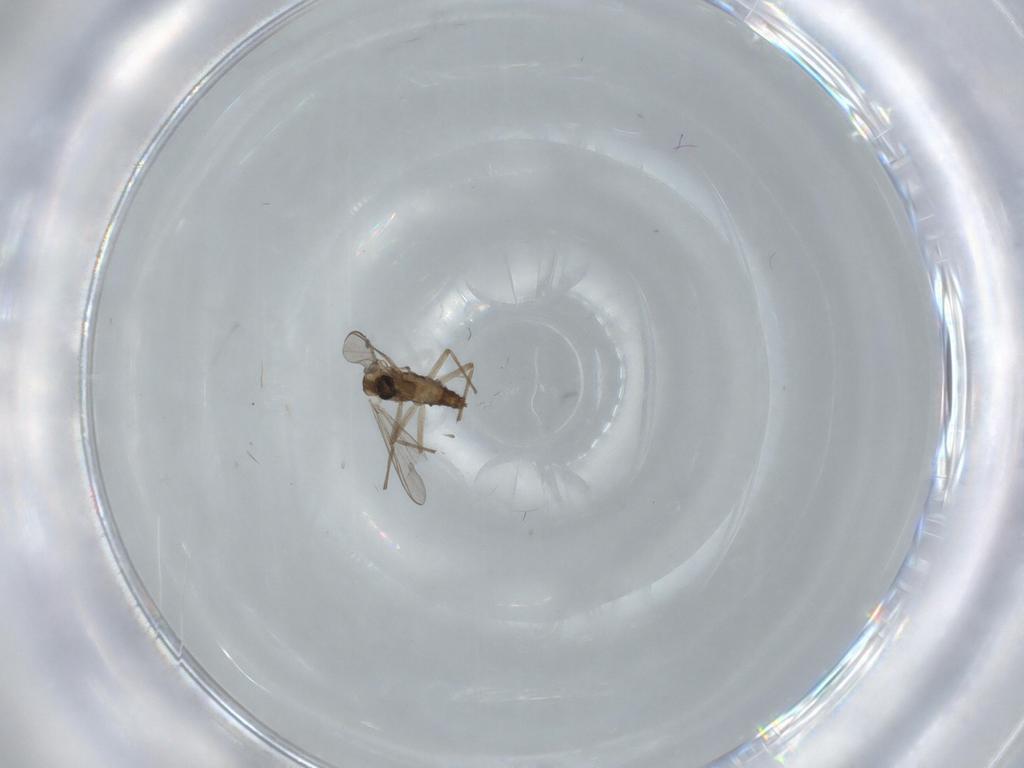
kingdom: Animalia
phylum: Arthropoda
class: Insecta
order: Diptera
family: Chironomidae
